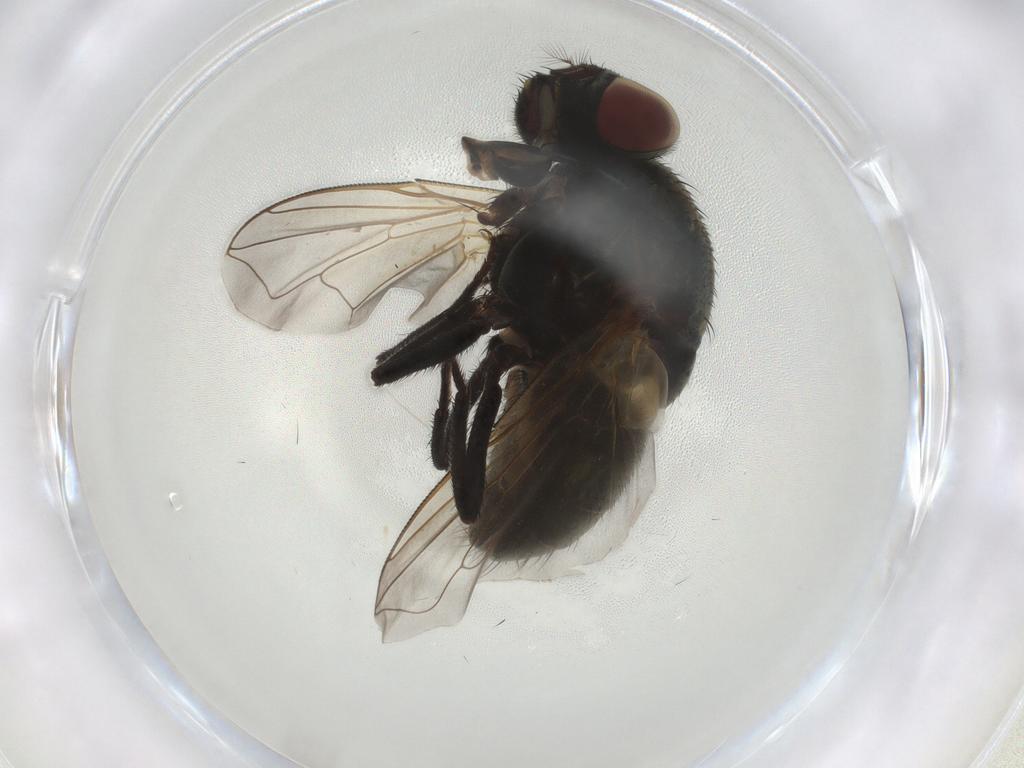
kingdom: Animalia
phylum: Arthropoda
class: Insecta
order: Diptera
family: Muscidae
